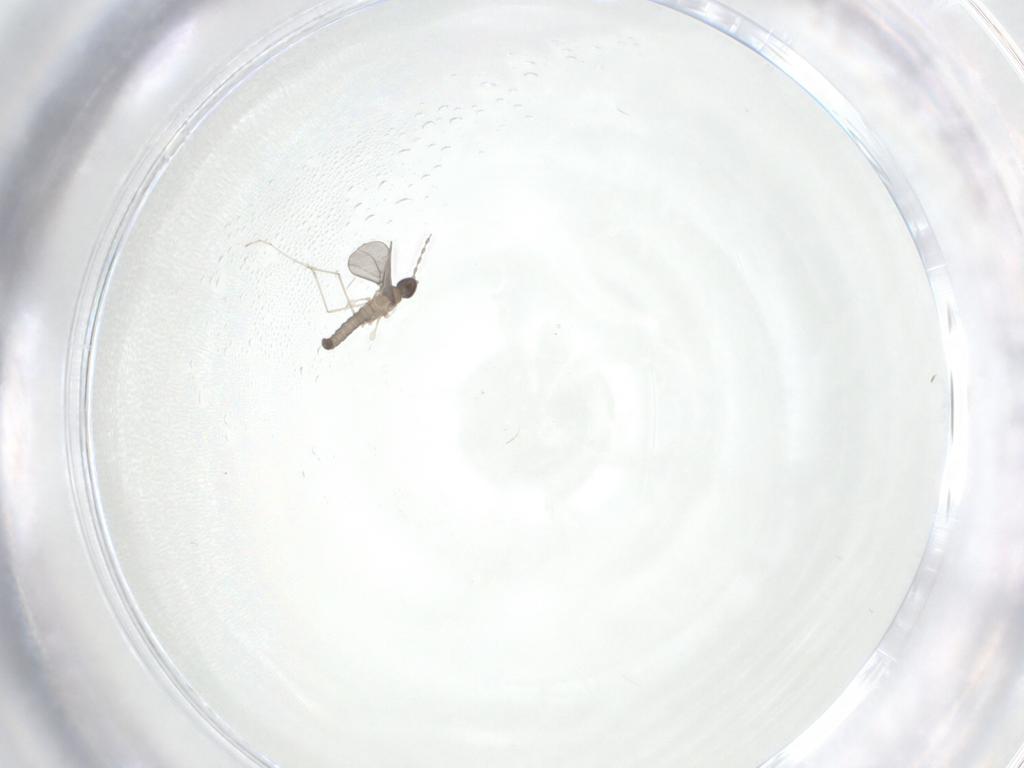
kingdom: Animalia
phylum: Arthropoda
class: Insecta
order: Diptera
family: Cecidomyiidae
